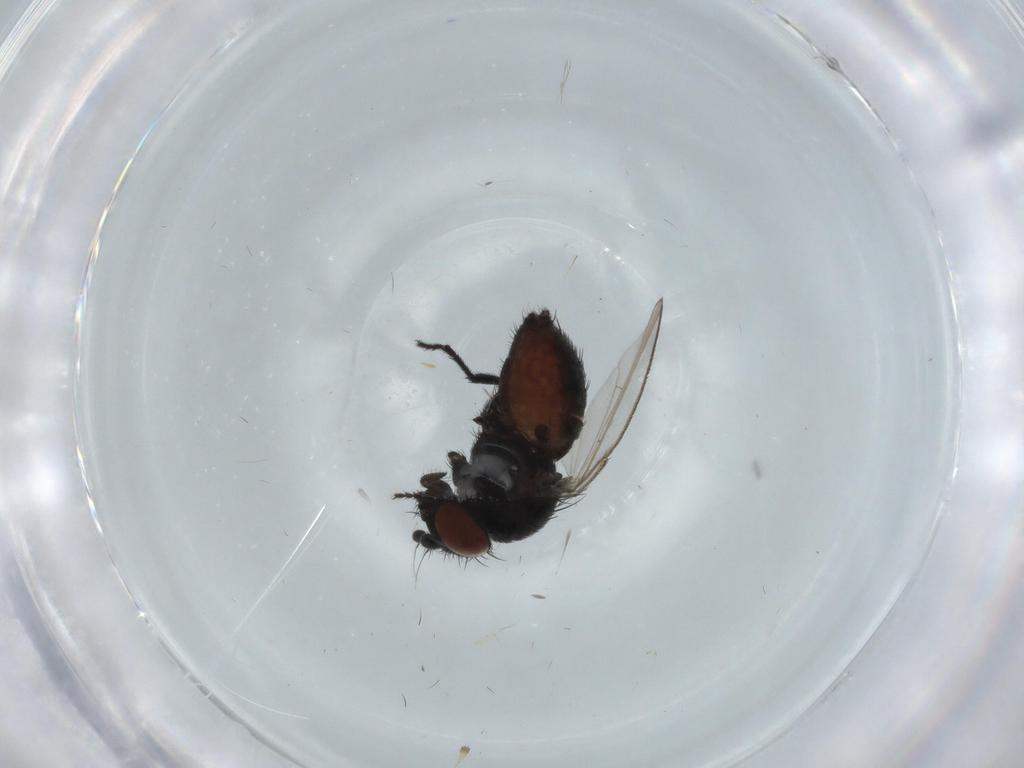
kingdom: Animalia
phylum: Arthropoda
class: Insecta
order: Diptera
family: Milichiidae
